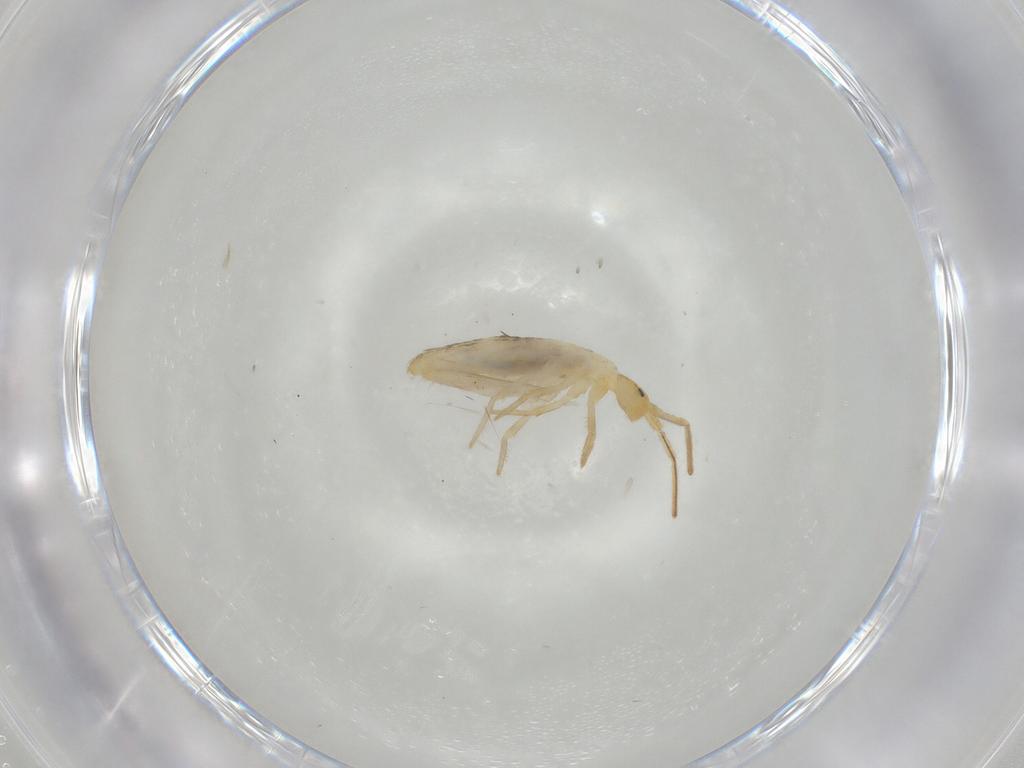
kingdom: Animalia
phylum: Arthropoda
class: Collembola
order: Entomobryomorpha
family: Entomobryidae
